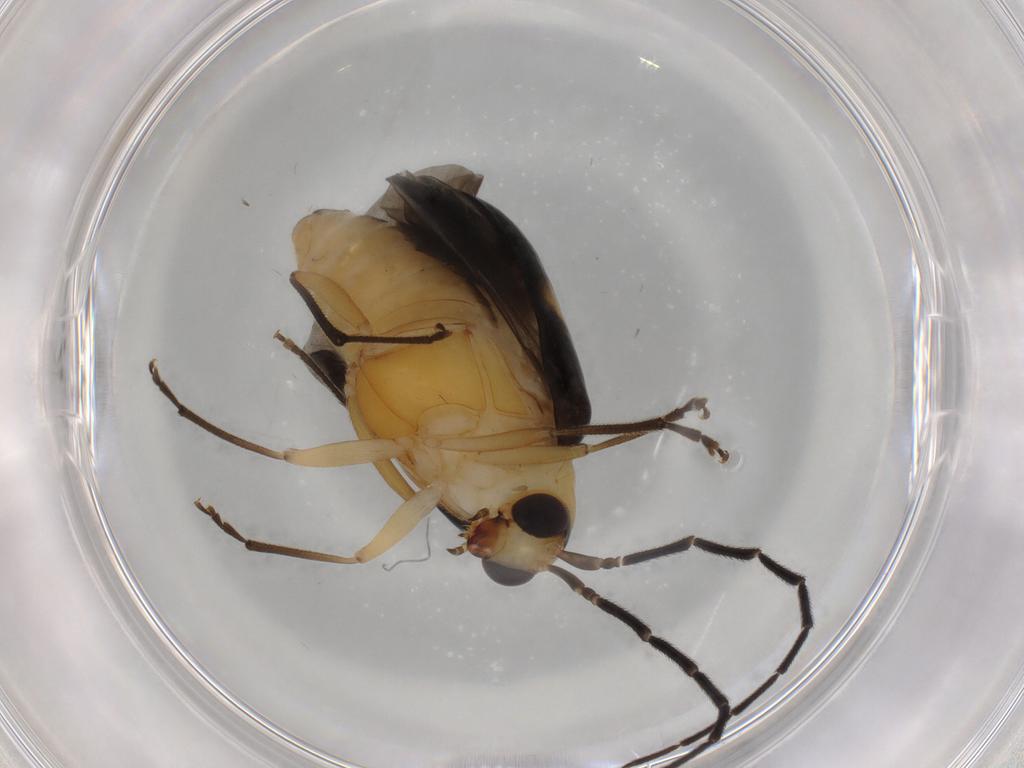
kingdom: Animalia
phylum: Arthropoda
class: Insecta
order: Coleoptera
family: Chrysomelidae
